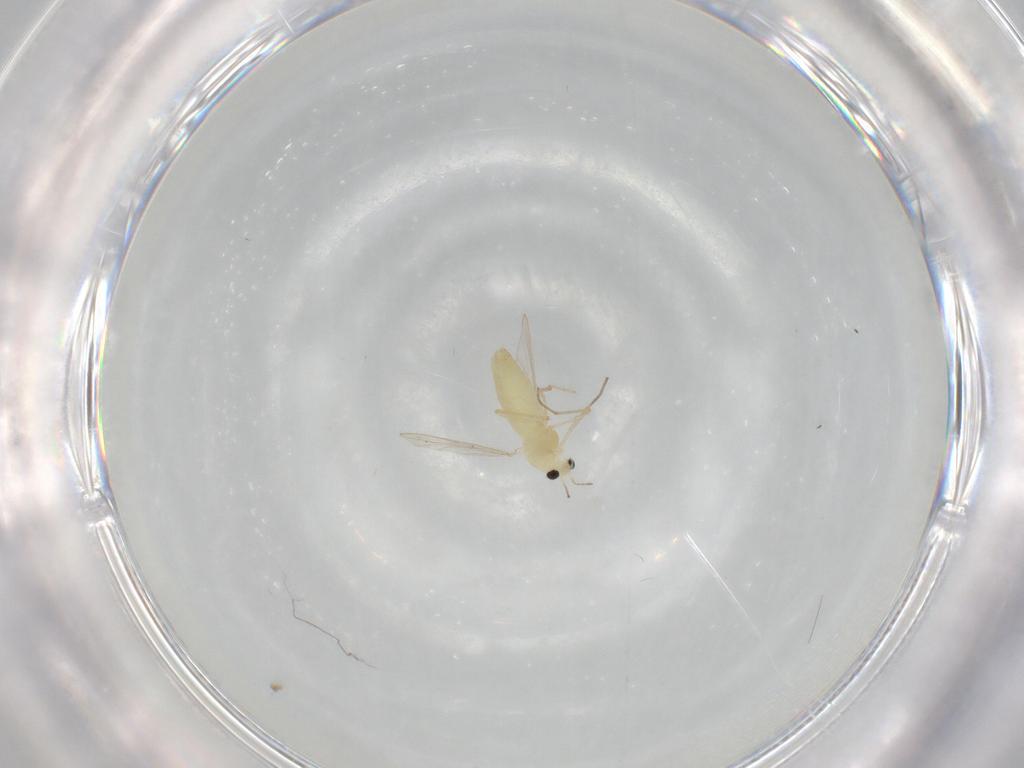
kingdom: Animalia
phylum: Arthropoda
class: Insecta
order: Diptera
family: Chironomidae
